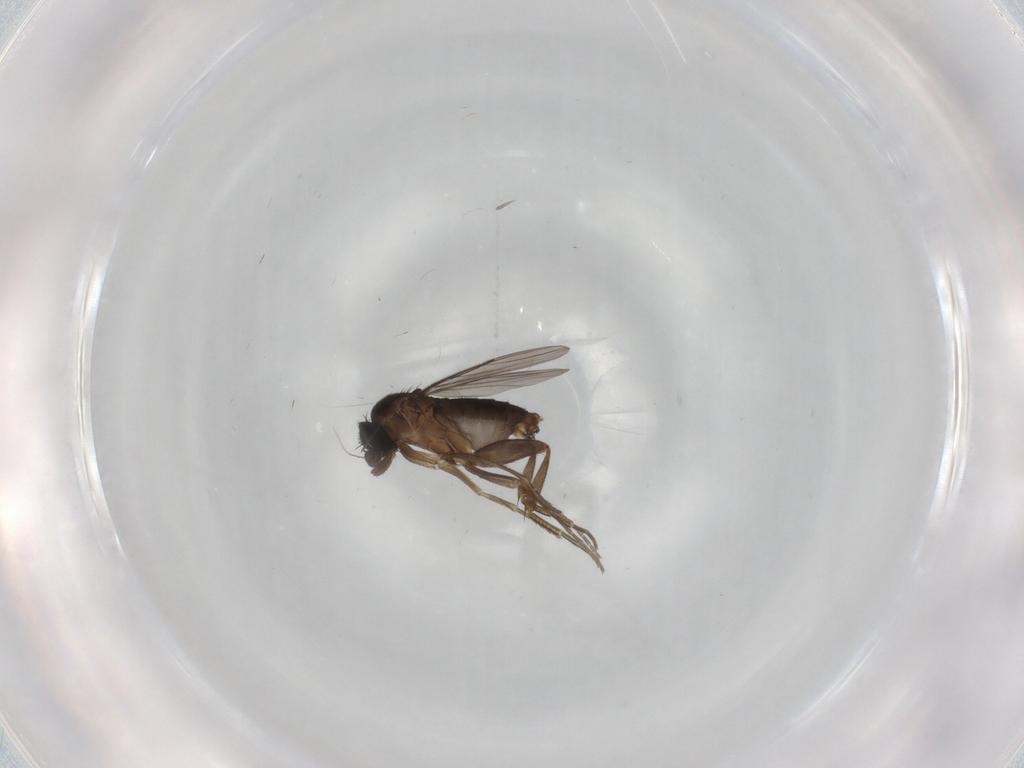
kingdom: Animalia
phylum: Arthropoda
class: Insecta
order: Diptera
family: Phoridae
